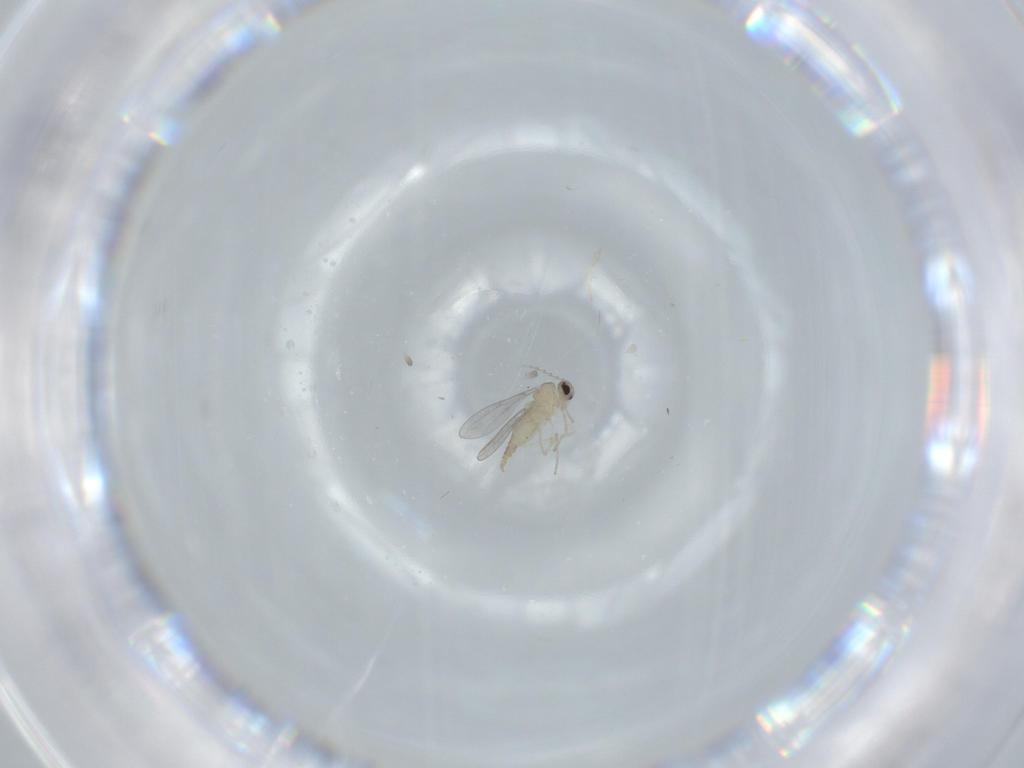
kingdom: Animalia
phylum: Arthropoda
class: Insecta
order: Diptera
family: Cecidomyiidae
